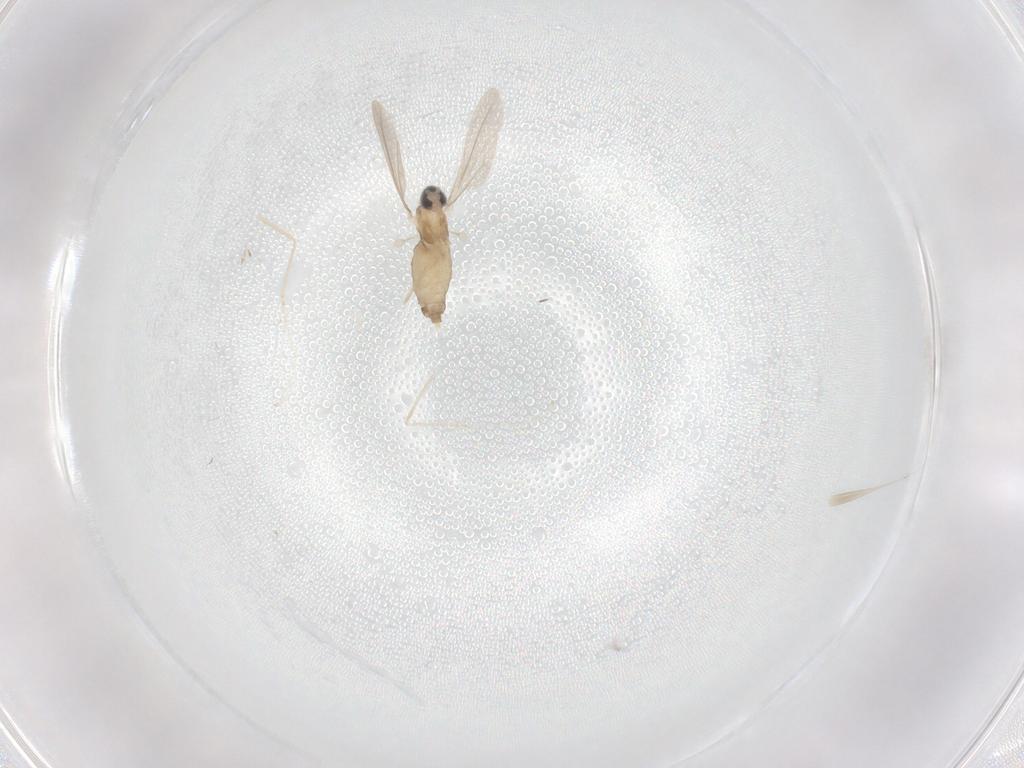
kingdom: Animalia
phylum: Arthropoda
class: Insecta
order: Diptera
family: Cecidomyiidae
